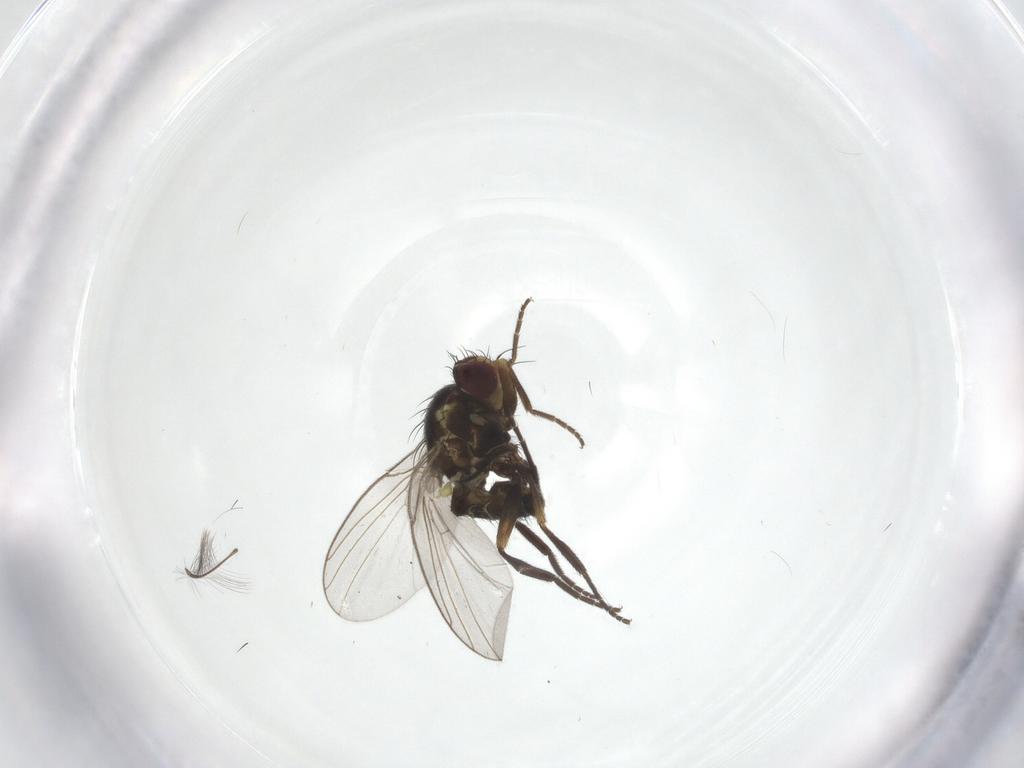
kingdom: Animalia
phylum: Arthropoda
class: Insecta
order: Diptera
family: Agromyzidae
